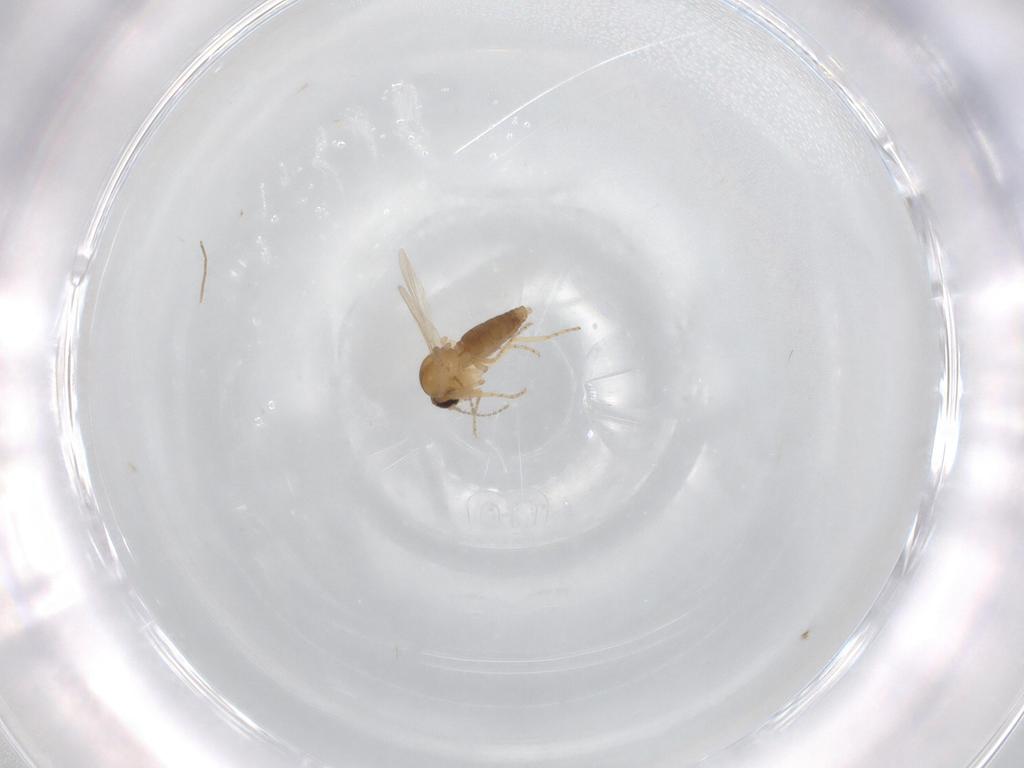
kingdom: Animalia
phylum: Arthropoda
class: Insecta
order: Diptera
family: Ceratopogonidae
